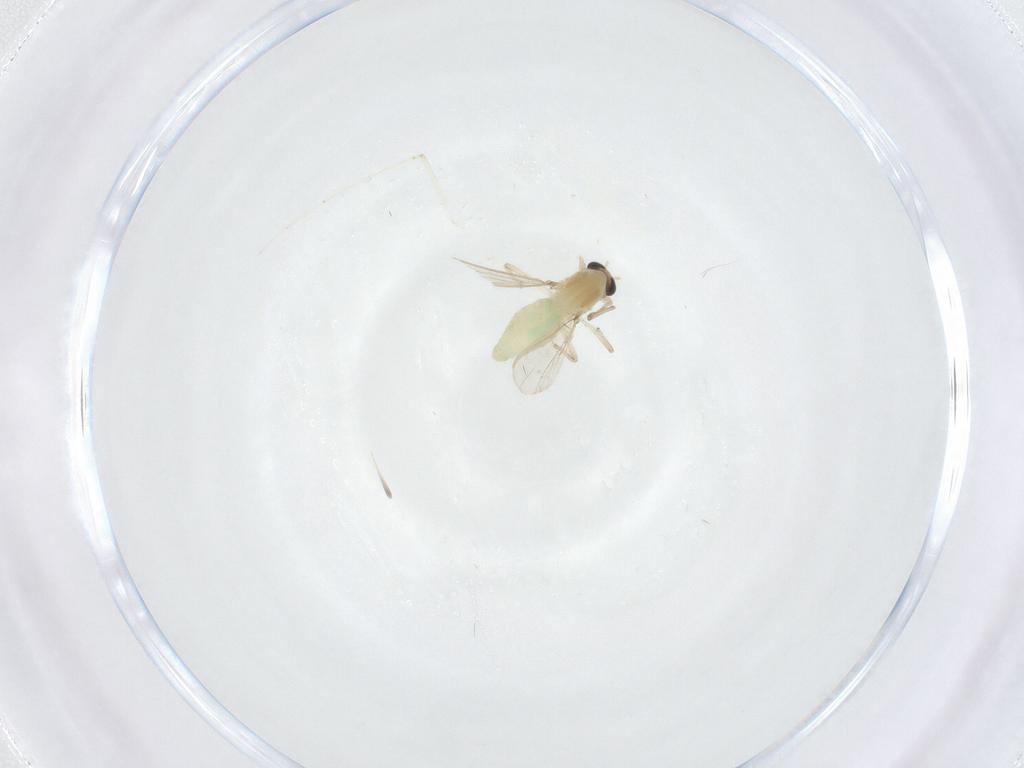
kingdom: Animalia
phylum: Arthropoda
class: Insecta
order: Diptera
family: Chironomidae
